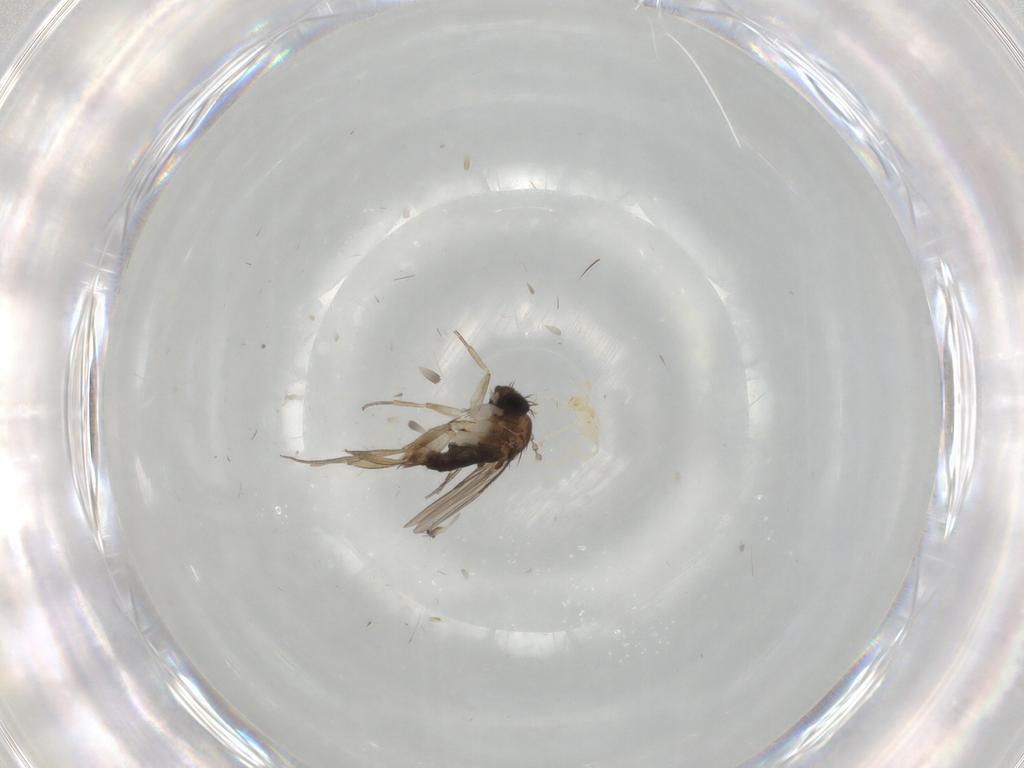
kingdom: Animalia
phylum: Arthropoda
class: Insecta
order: Diptera
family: Phoridae
